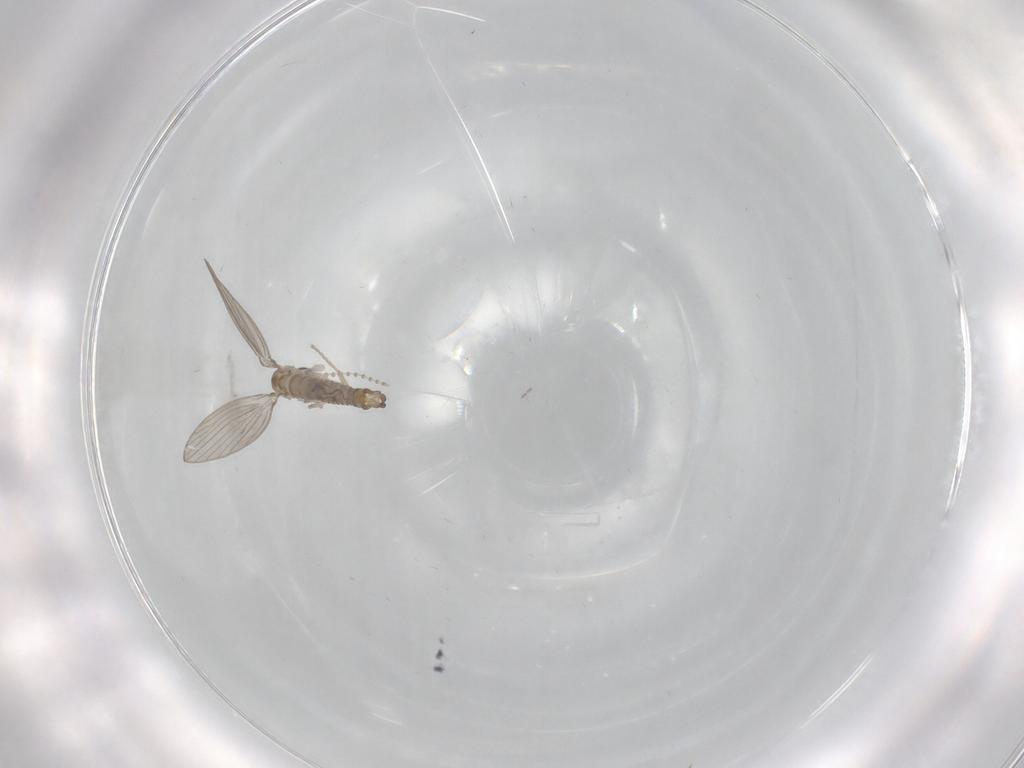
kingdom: Animalia
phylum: Arthropoda
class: Insecta
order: Diptera
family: Psychodidae
